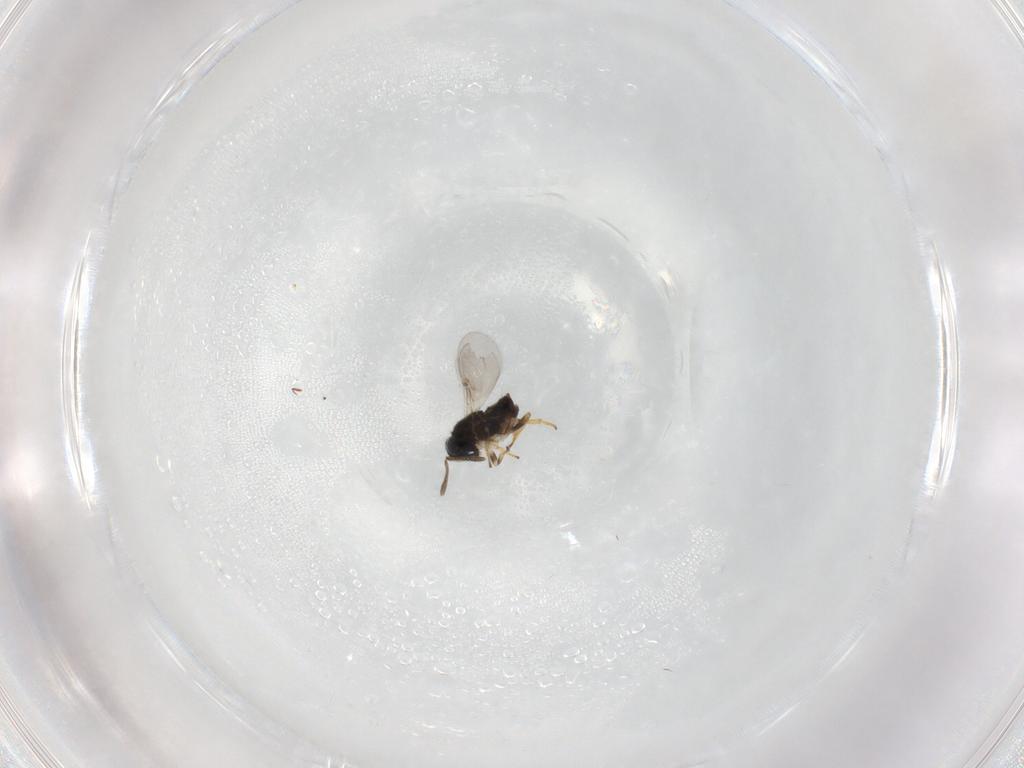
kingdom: Animalia
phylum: Arthropoda
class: Insecta
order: Hymenoptera
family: Encyrtidae
